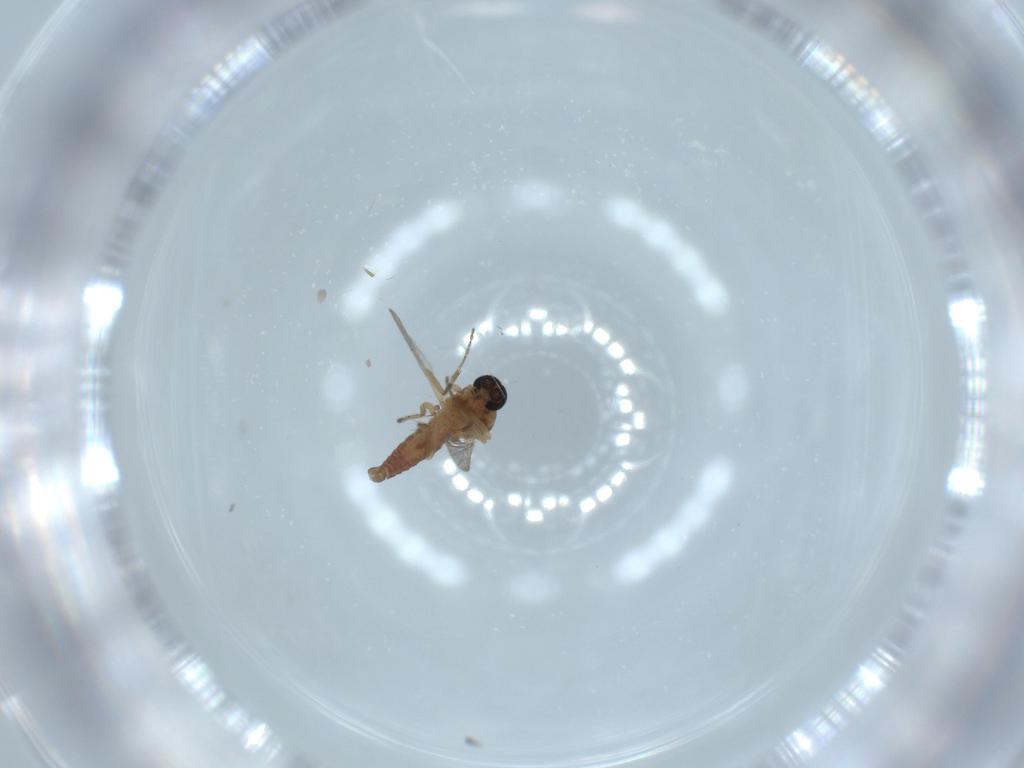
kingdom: Animalia
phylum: Arthropoda
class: Insecta
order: Diptera
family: Ceratopogonidae
